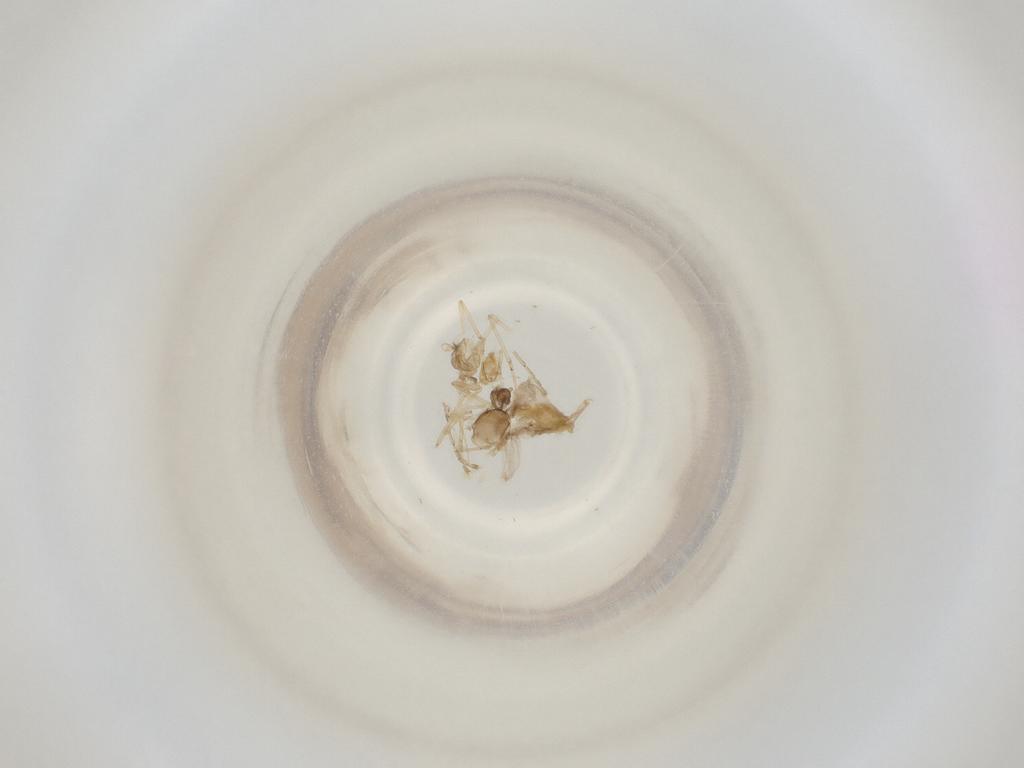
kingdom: Animalia
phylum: Arthropoda
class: Insecta
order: Diptera
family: Cecidomyiidae
